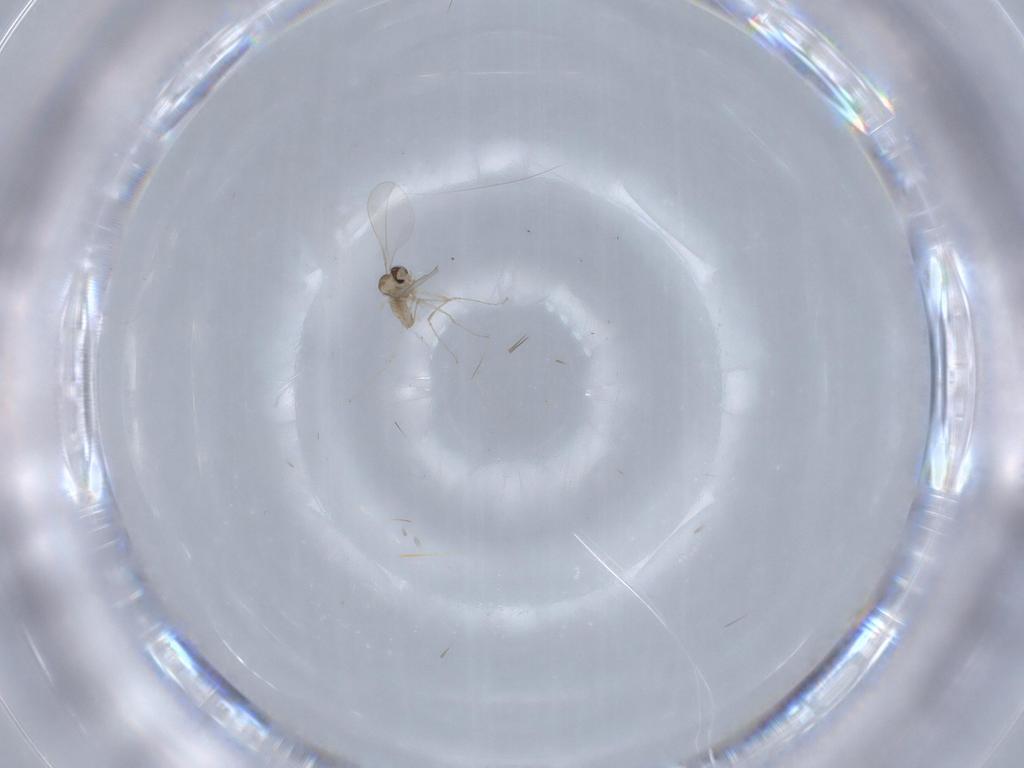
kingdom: Animalia
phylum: Arthropoda
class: Insecta
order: Diptera
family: Cecidomyiidae
